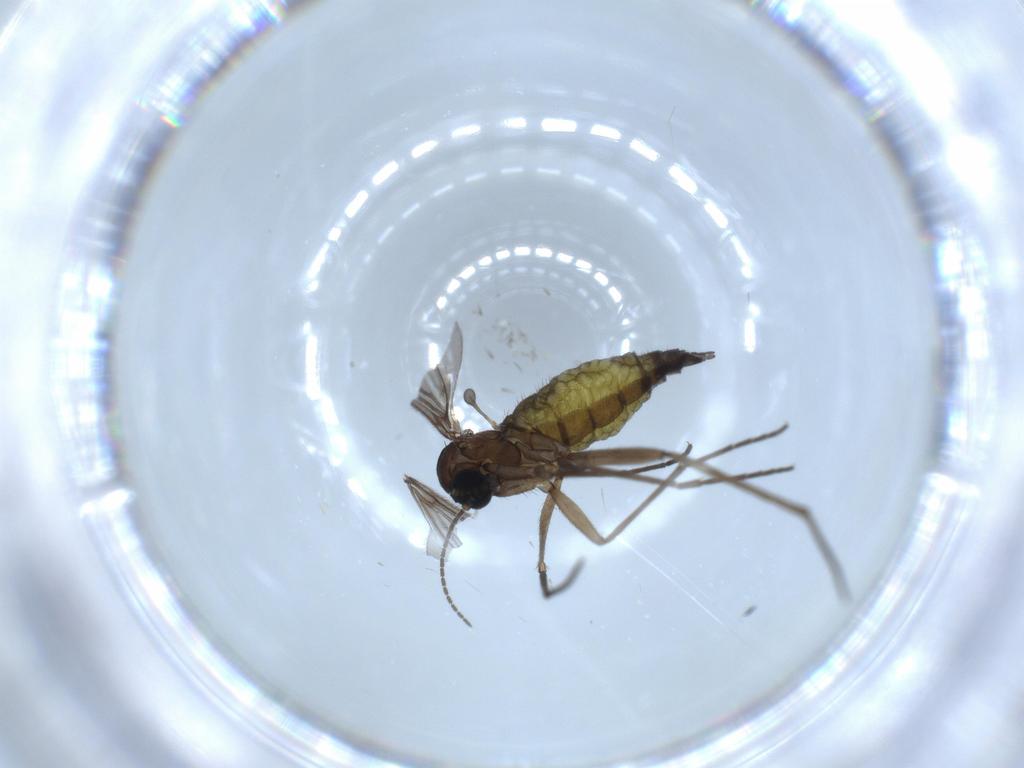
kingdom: Animalia
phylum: Arthropoda
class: Insecta
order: Diptera
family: Sciaridae
